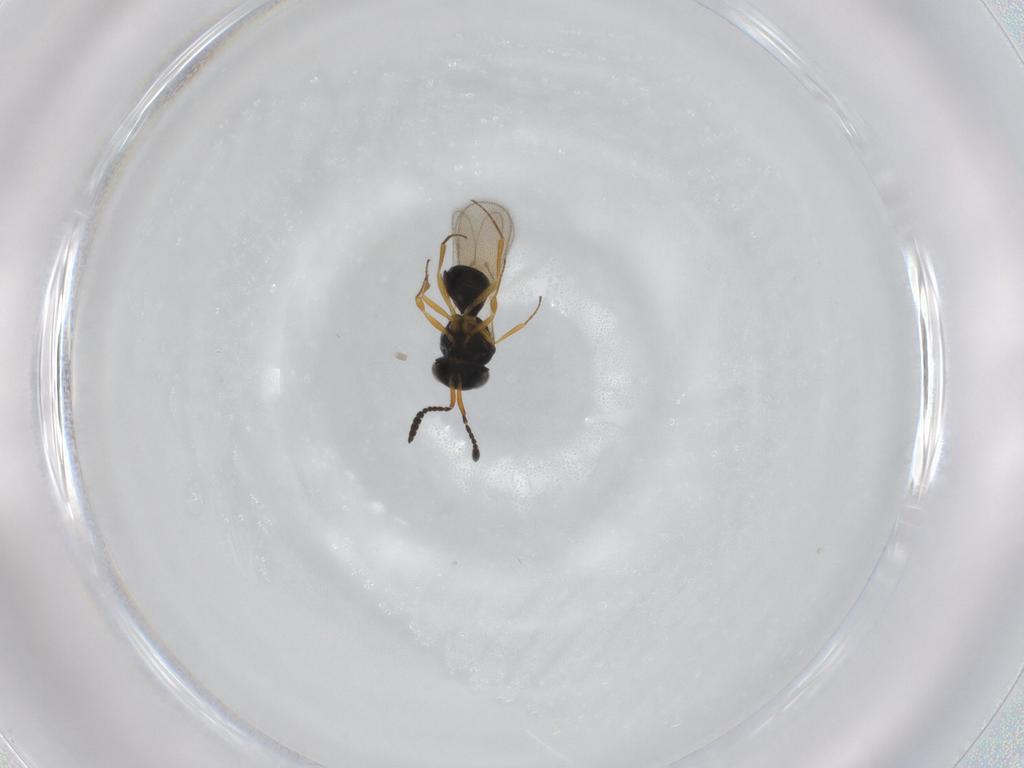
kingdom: Animalia
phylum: Arthropoda
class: Insecta
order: Hymenoptera
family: Scelionidae
